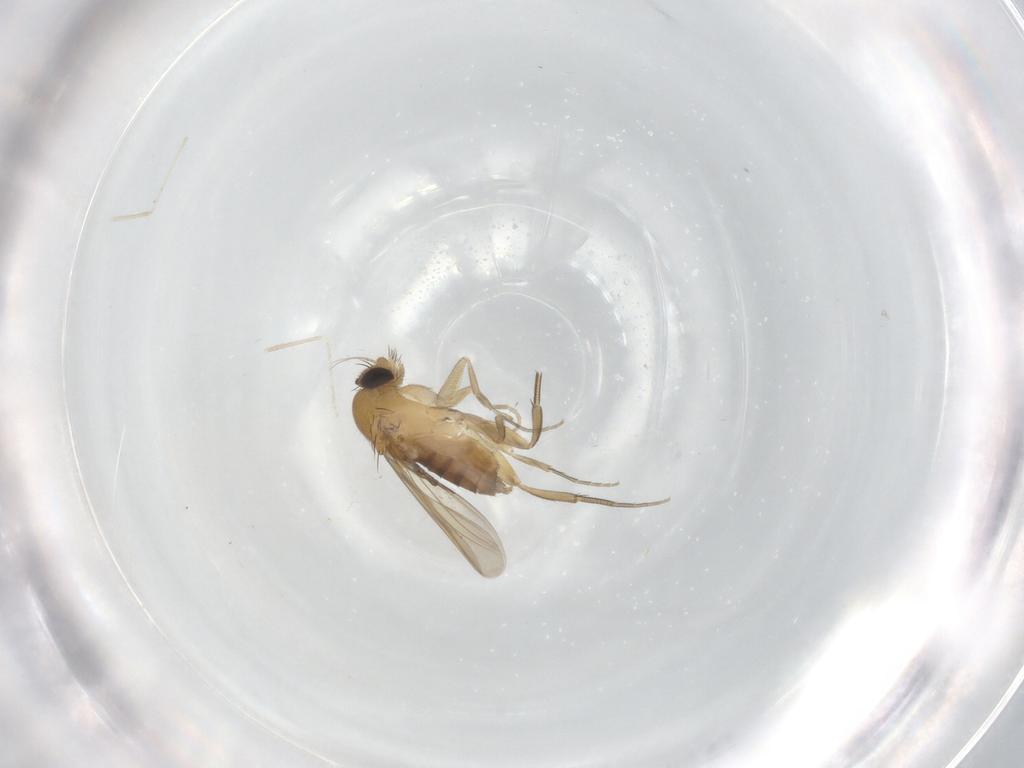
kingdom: Animalia
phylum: Arthropoda
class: Insecta
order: Diptera
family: Phoridae
